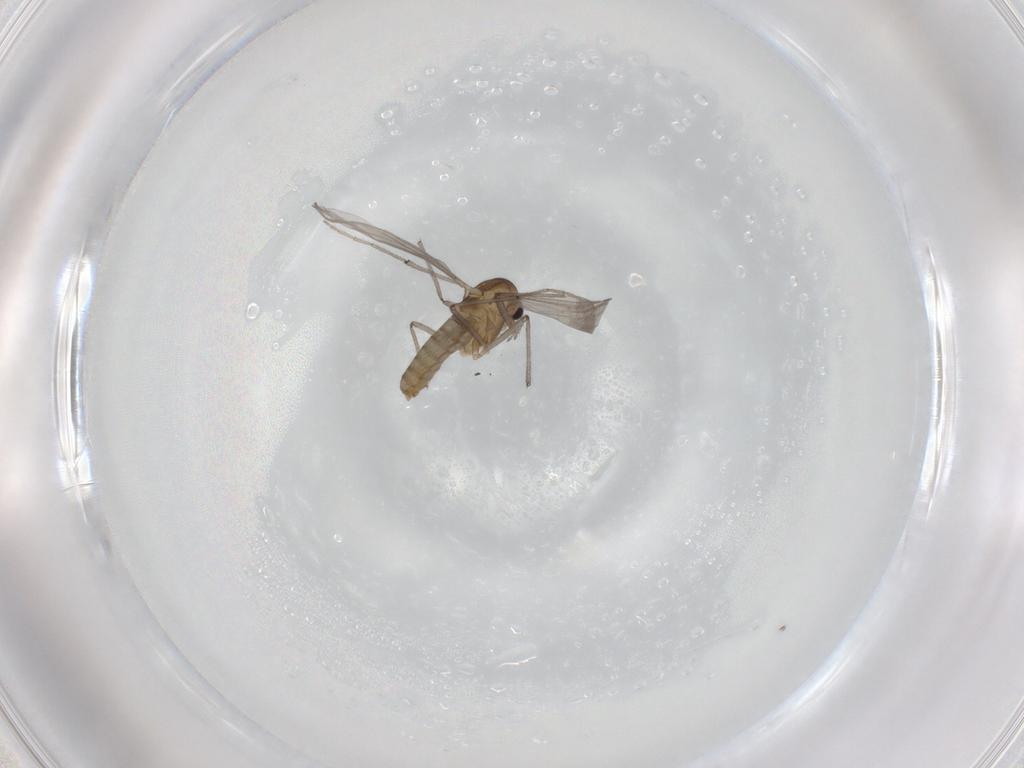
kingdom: Animalia
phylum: Arthropoda
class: Insecta
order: Diptera
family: Chironomidae
